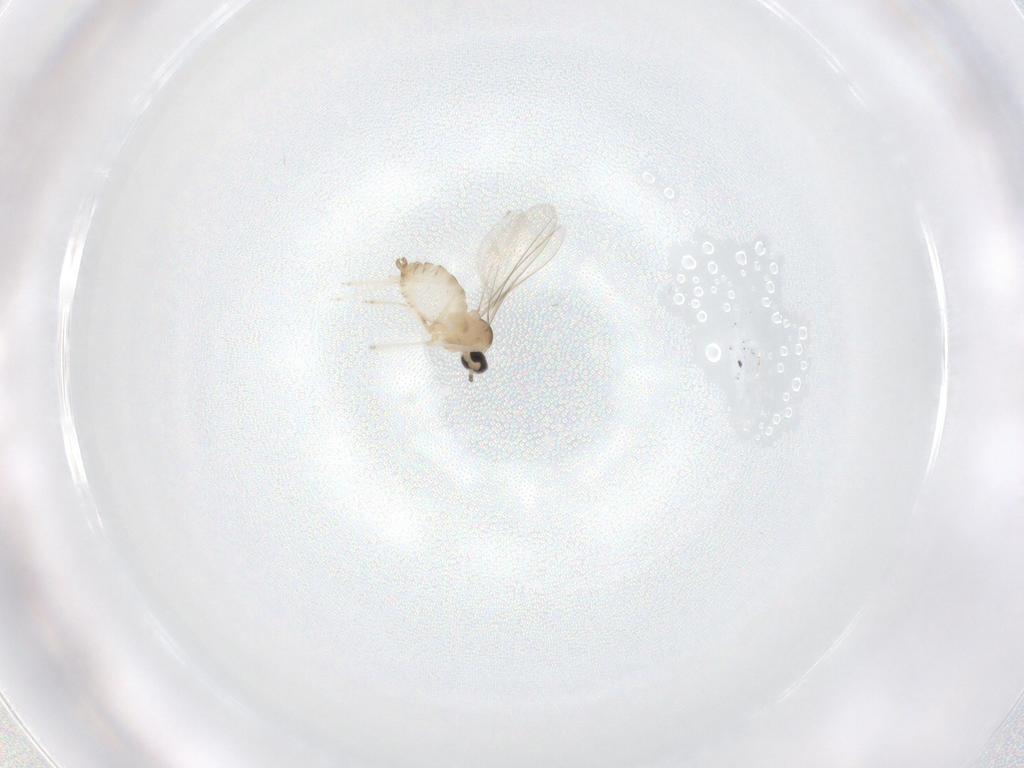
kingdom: Animalia
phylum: Arthropoda
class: Insecta
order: Diptera
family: Cecidomyiidae
